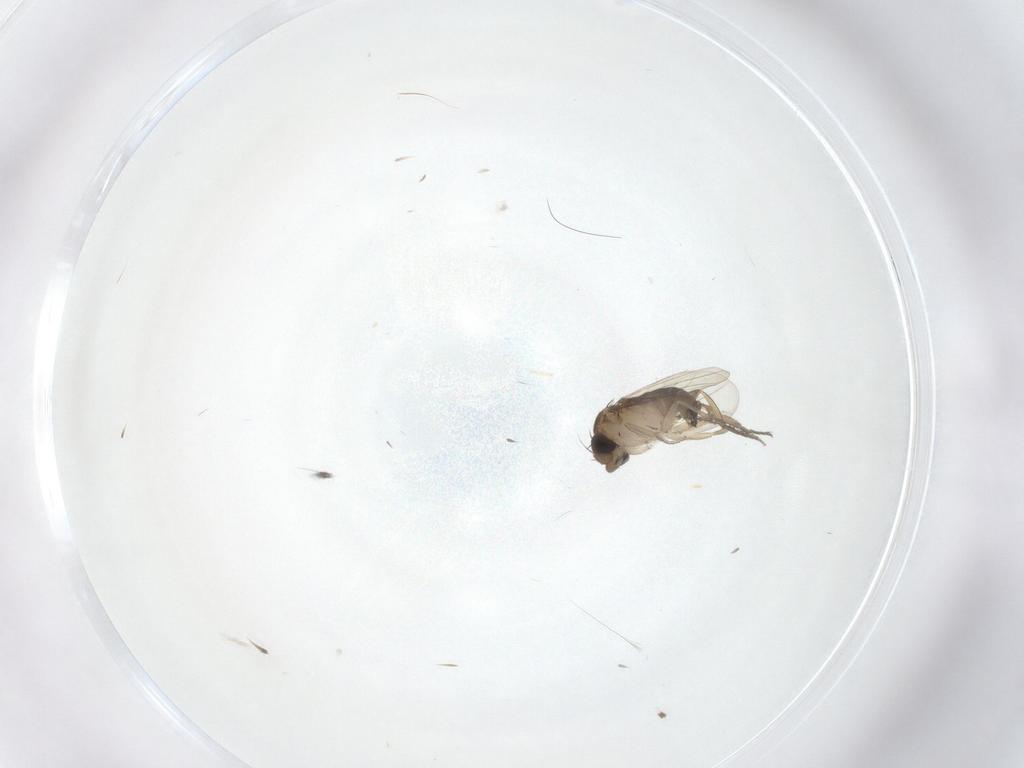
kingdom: Animalia
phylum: Arthropoda
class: Insecta
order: Diptera
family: Cecidomyiidae
